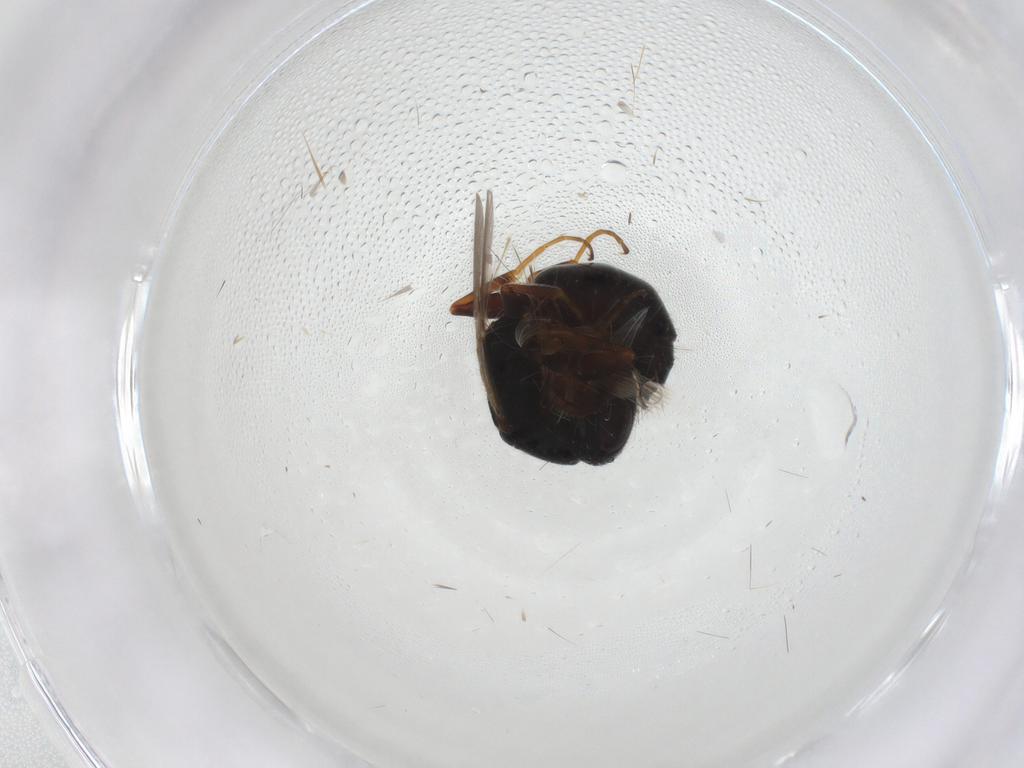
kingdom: Animalia
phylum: Arthropoda
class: Insecta
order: Hymenoptera
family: Bethylidae
